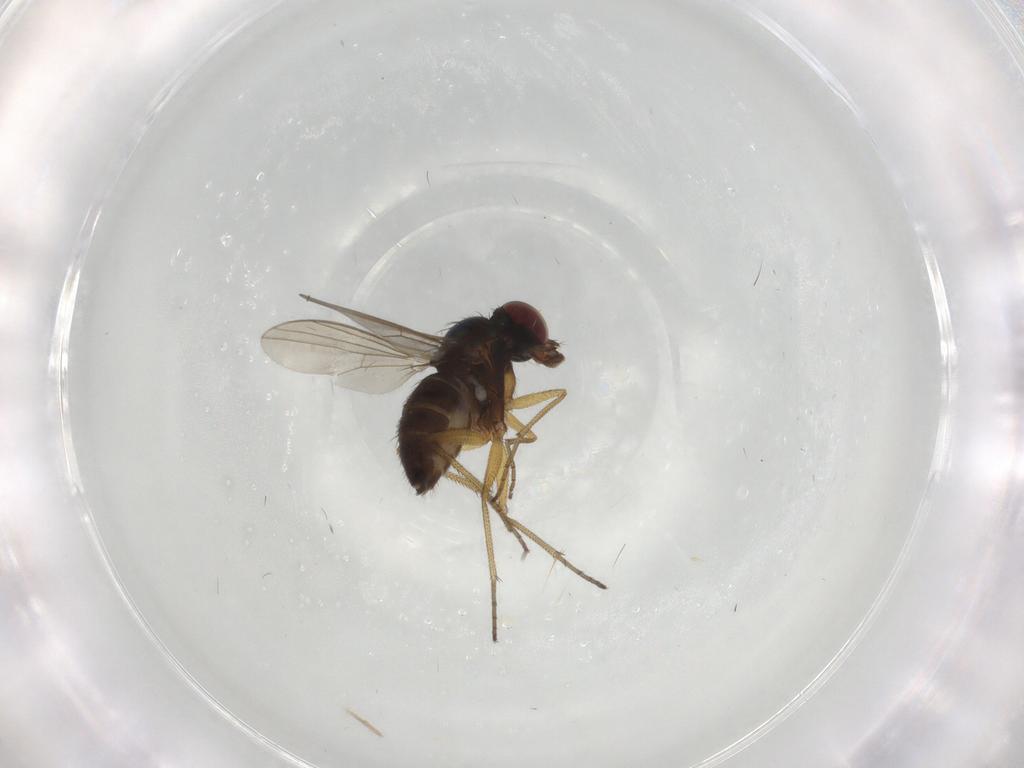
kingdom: Animalia
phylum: Arthropoda
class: Insecta
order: Diptera
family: Dolichopodidae
